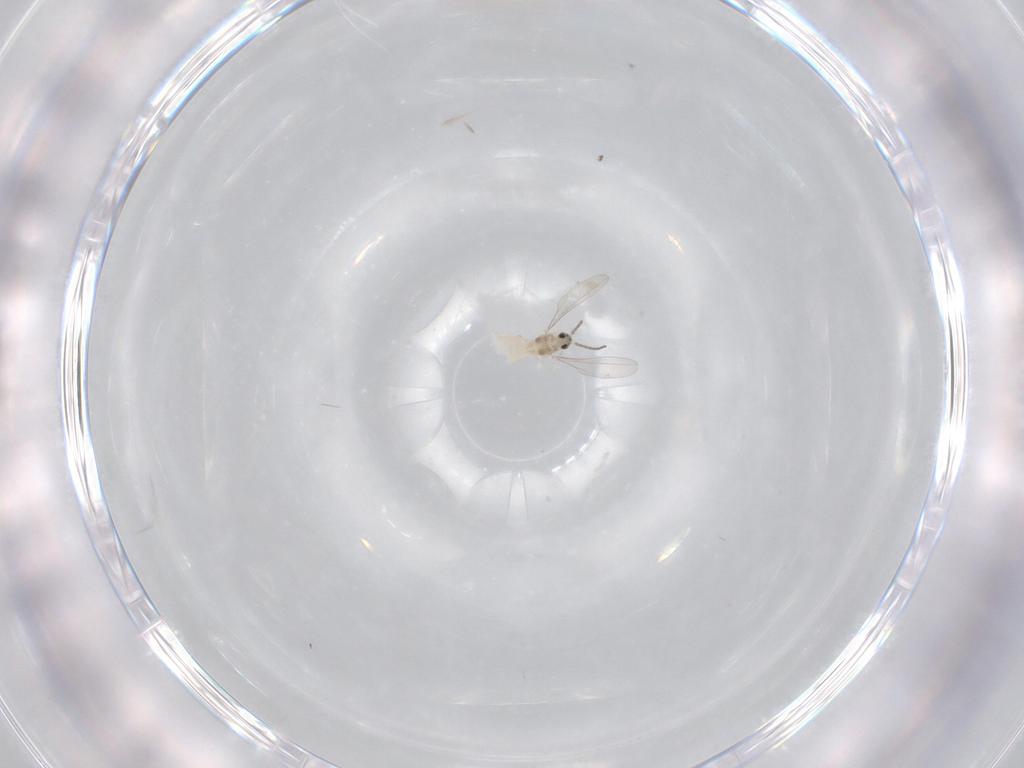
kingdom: Animalia
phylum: Arthropoda
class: Insecta
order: Diptera
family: Cecidomyiidae
